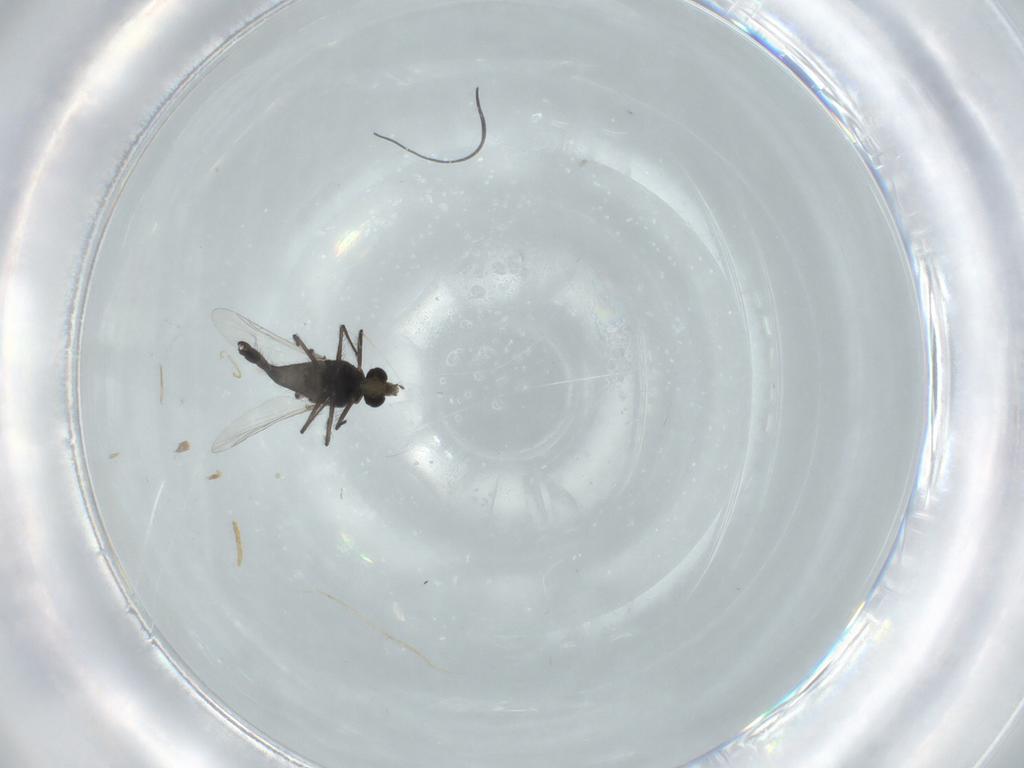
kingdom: Animalia
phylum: Arthropoda
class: Insecta
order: Diptera
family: Chironomidae
